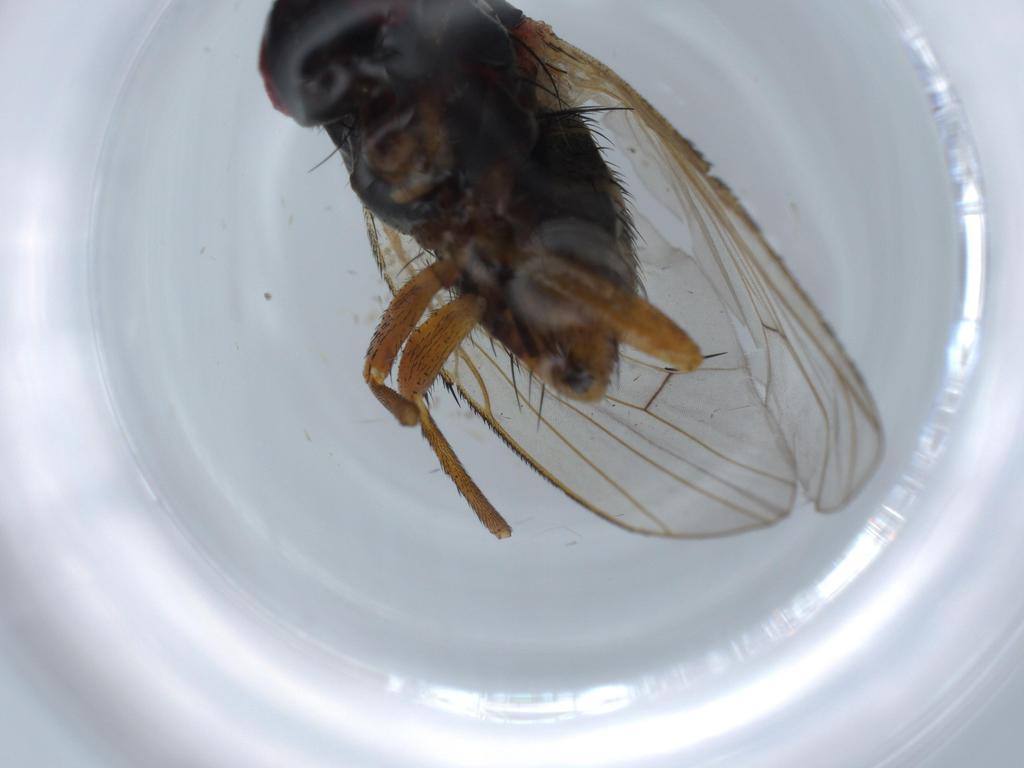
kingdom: Animalia
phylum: Arthropoda
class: Insecta
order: Diptera
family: Muscidae
